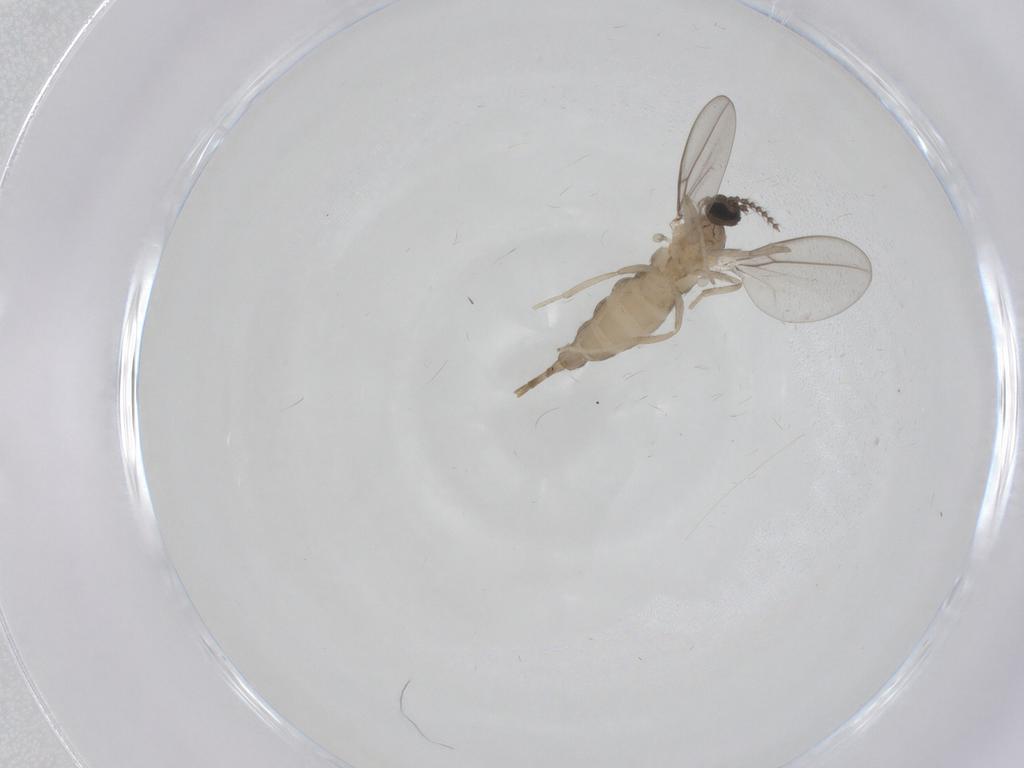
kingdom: Animalia
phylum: Arthropoda
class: Insecta
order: Diptera
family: Cecidomyiidae
